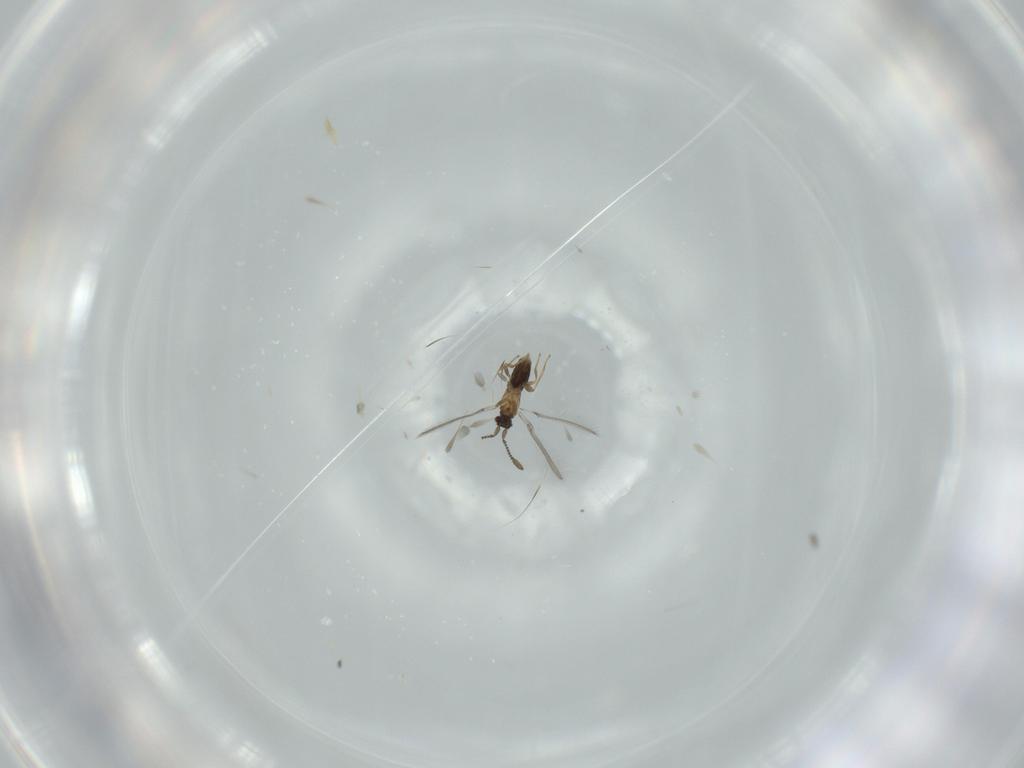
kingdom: Animalia
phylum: Arthropoda
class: Insecta
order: Hymenoptera
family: Mymaridae
